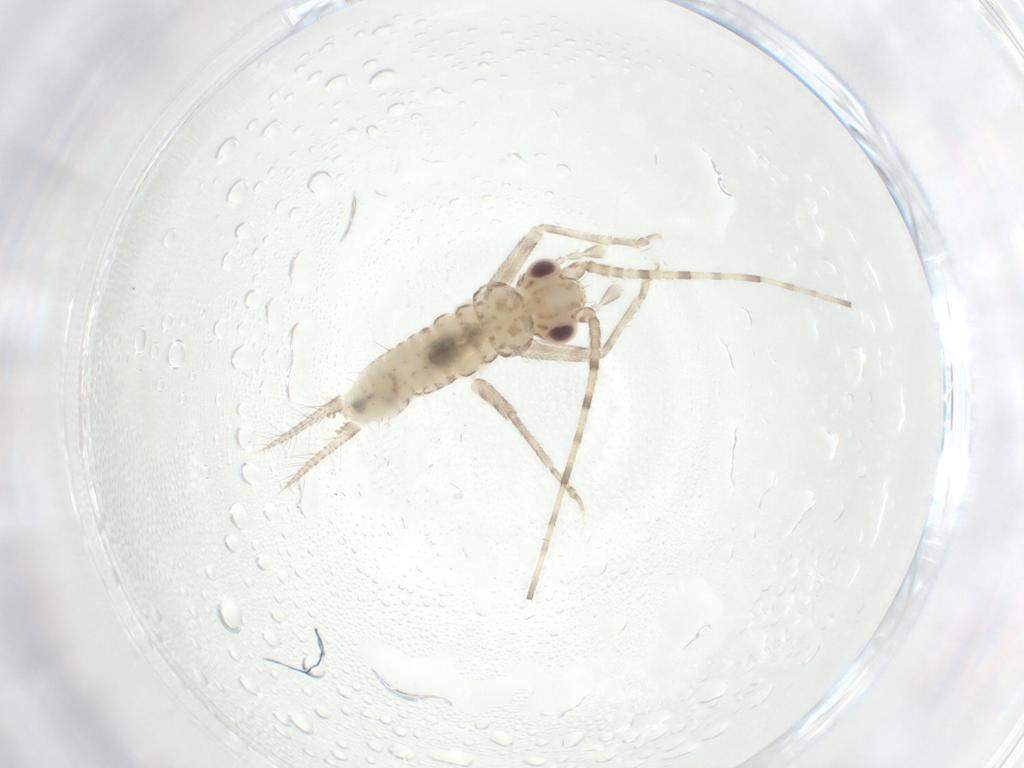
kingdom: Animalia
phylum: Arthropoda
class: Insecta
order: Orthoptera
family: Trigonidiidae
